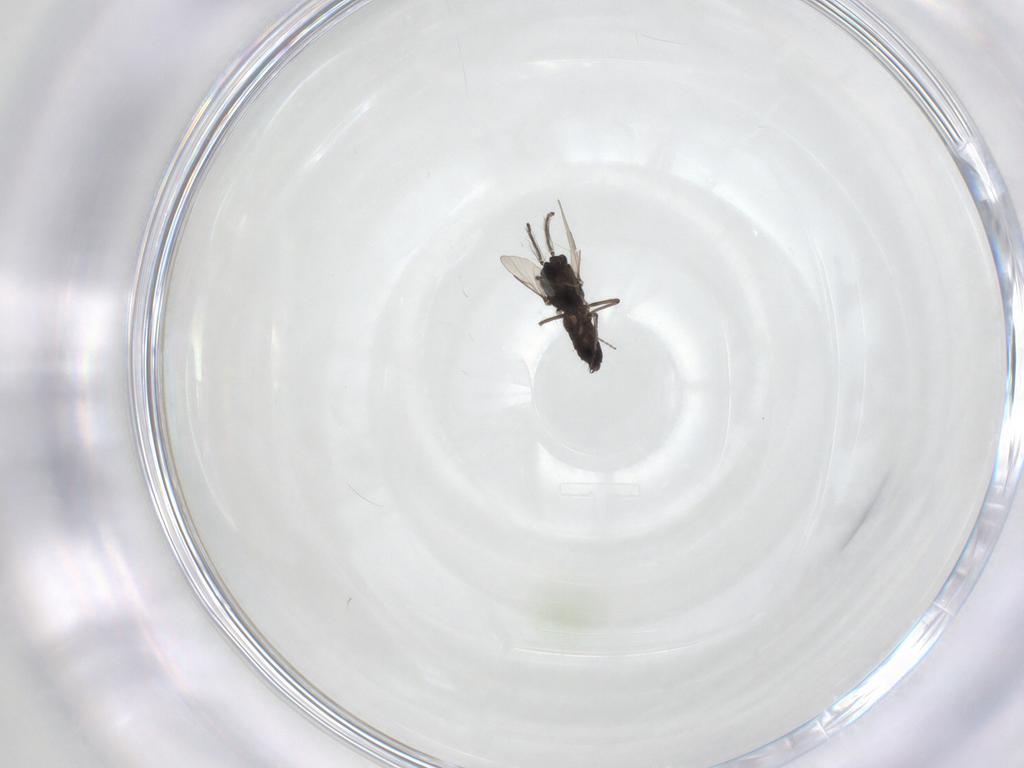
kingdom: Animalia
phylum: Arthropoda
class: Insecta
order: Diptera
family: Ceratopogonidae
